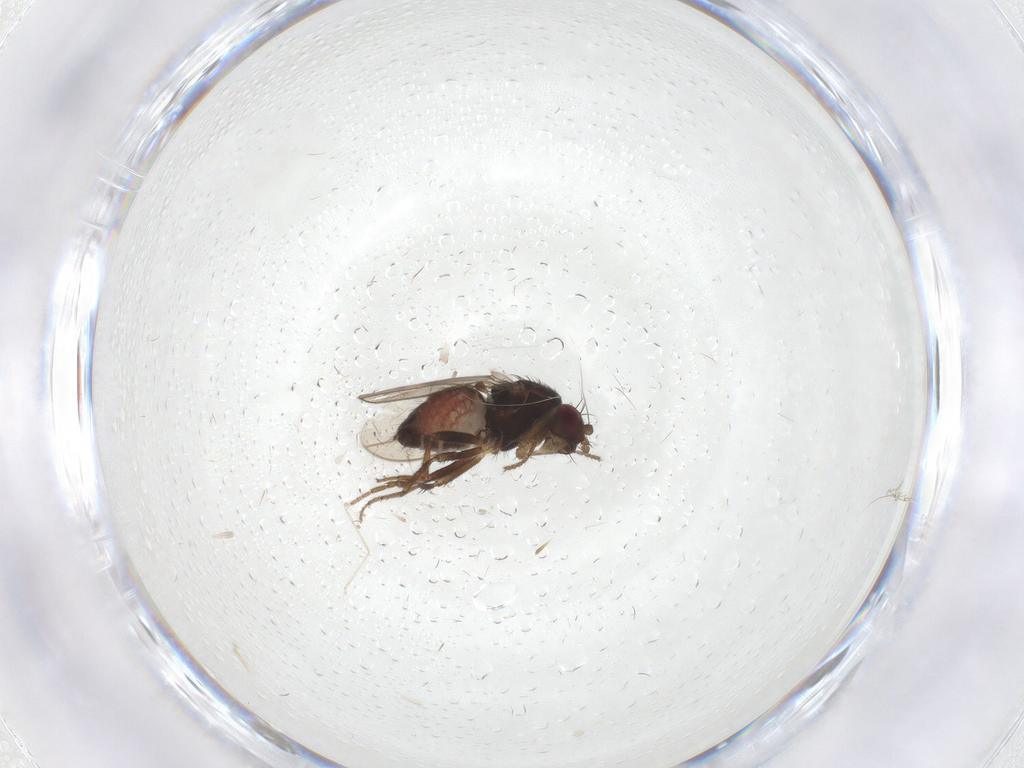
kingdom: Animalia
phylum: Arthropoda
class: Insecta
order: Diptera
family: Sphaeroceridae
